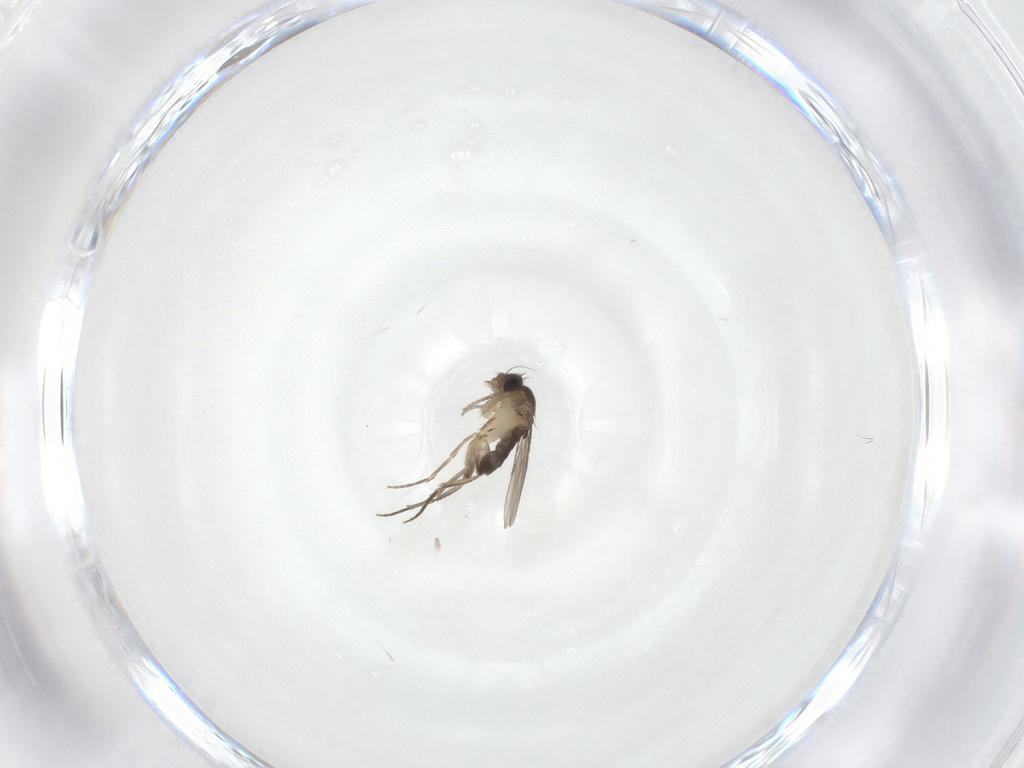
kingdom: Animalia
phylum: Arthropoda
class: Insecta
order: Diptera
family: Phoridae
